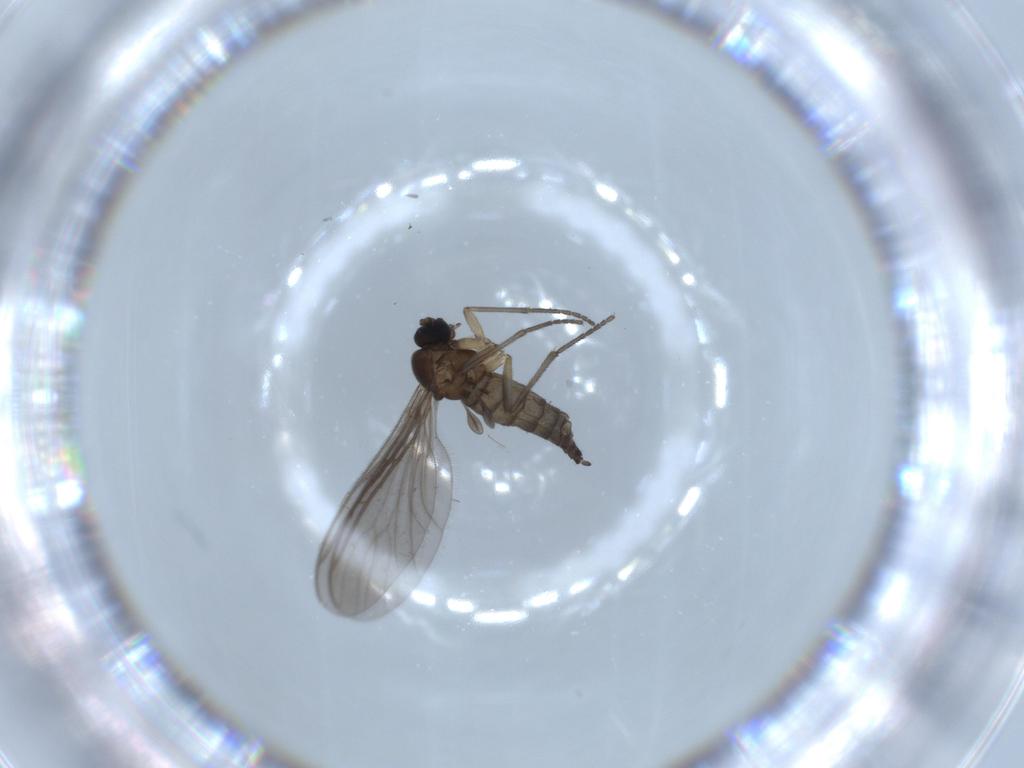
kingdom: Animalia
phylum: Arthropoda
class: Insecta
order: Diptera
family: Sciaridae
